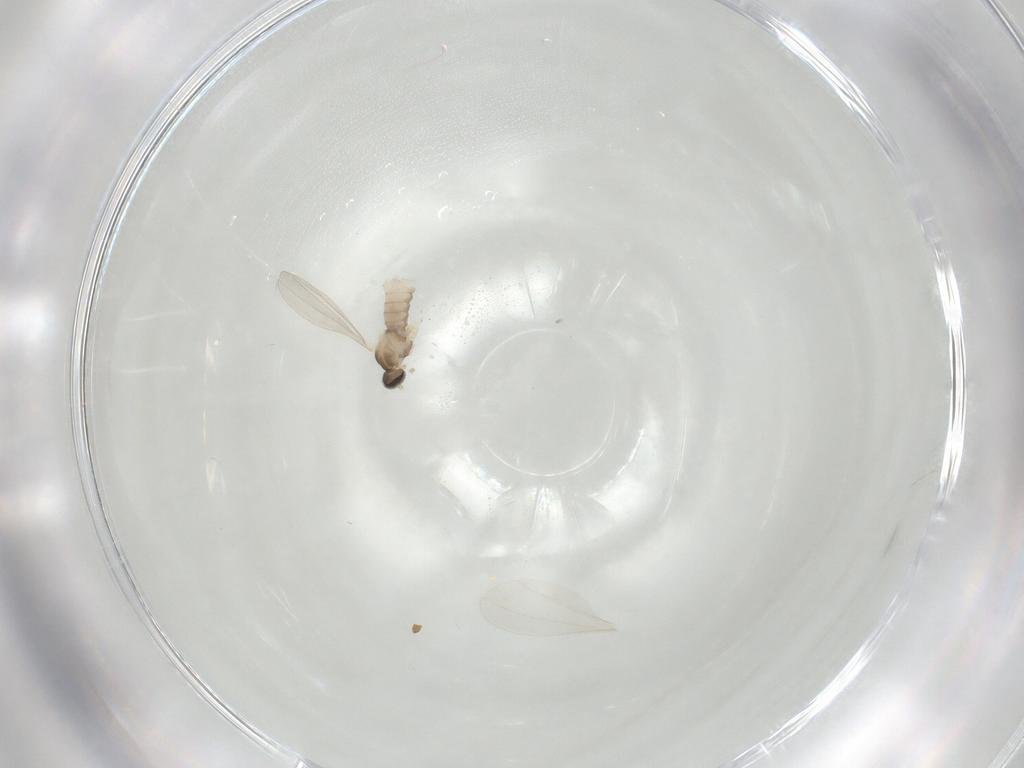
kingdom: Animalia
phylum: Arthropoda
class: Insecta
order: Diptera
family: Cecidomyiidae
